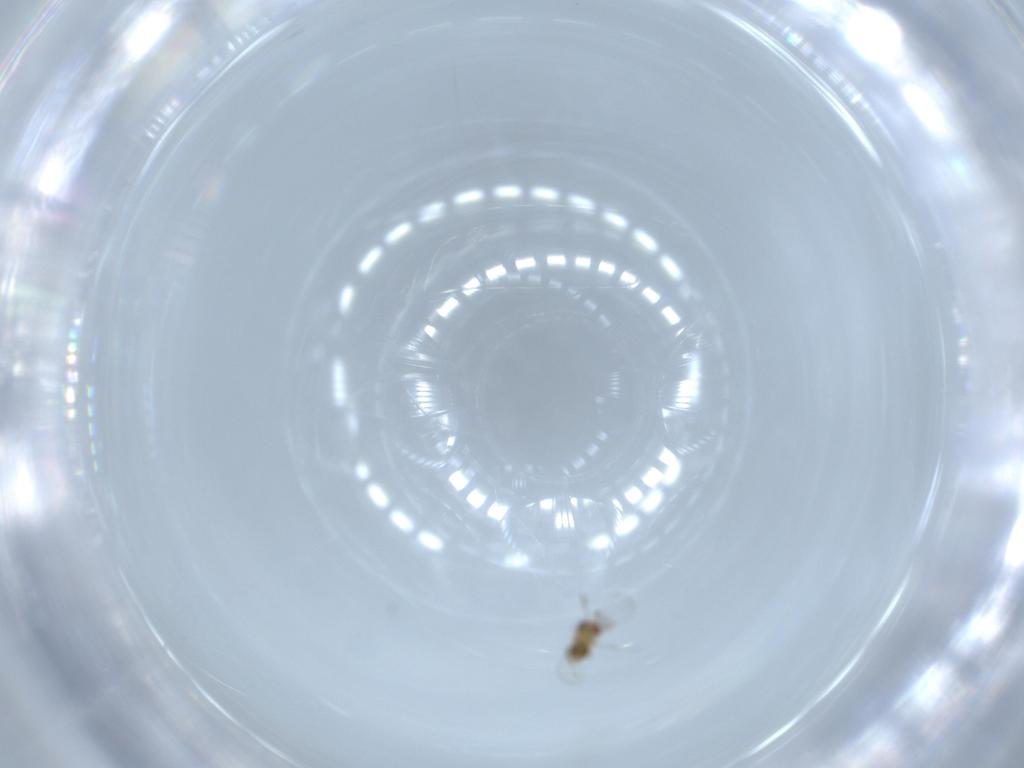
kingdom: Animalia
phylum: Arthropoda
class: Insecta
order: Hymenoptera
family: Trichogrammatidae
